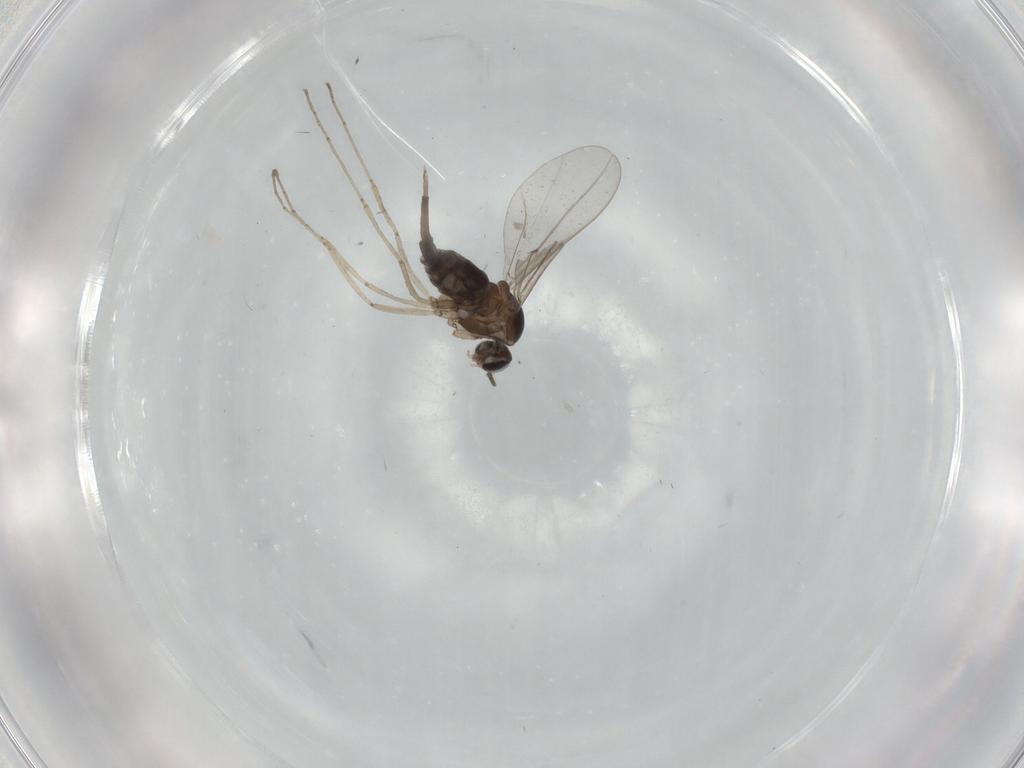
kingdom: Animalia
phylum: Arthropoda
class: Insecta
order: Diptera
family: Cecidomyiidae
